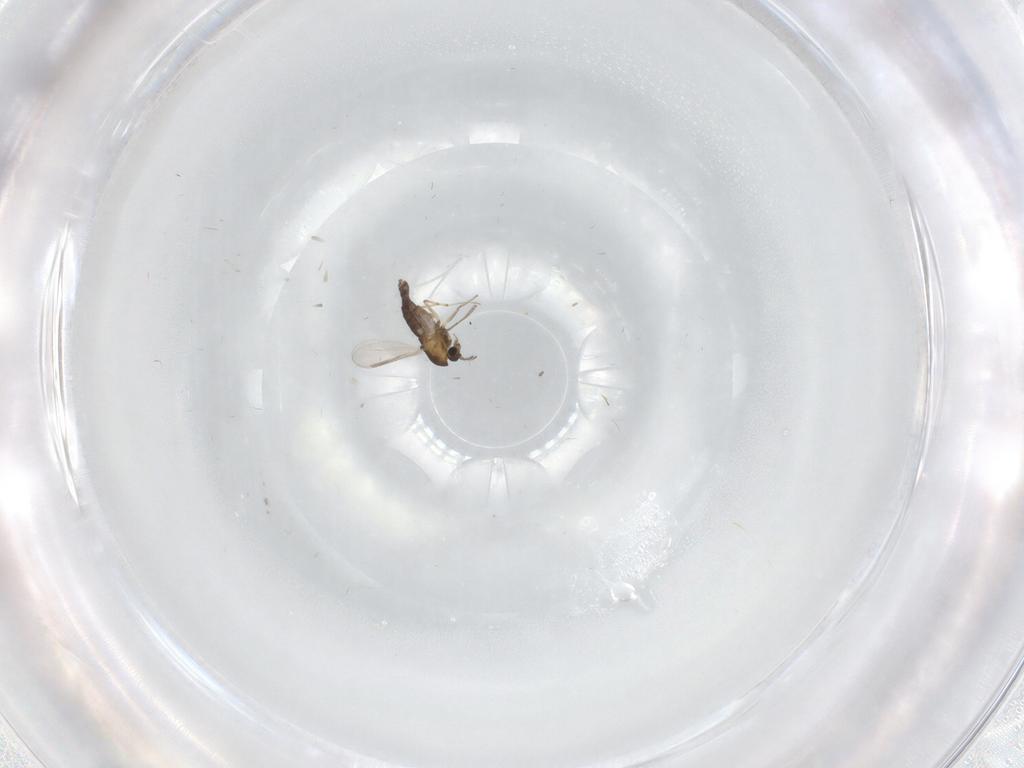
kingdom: Animalia
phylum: Arthropoda
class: Insecta
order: Diptera
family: Chironomidae
